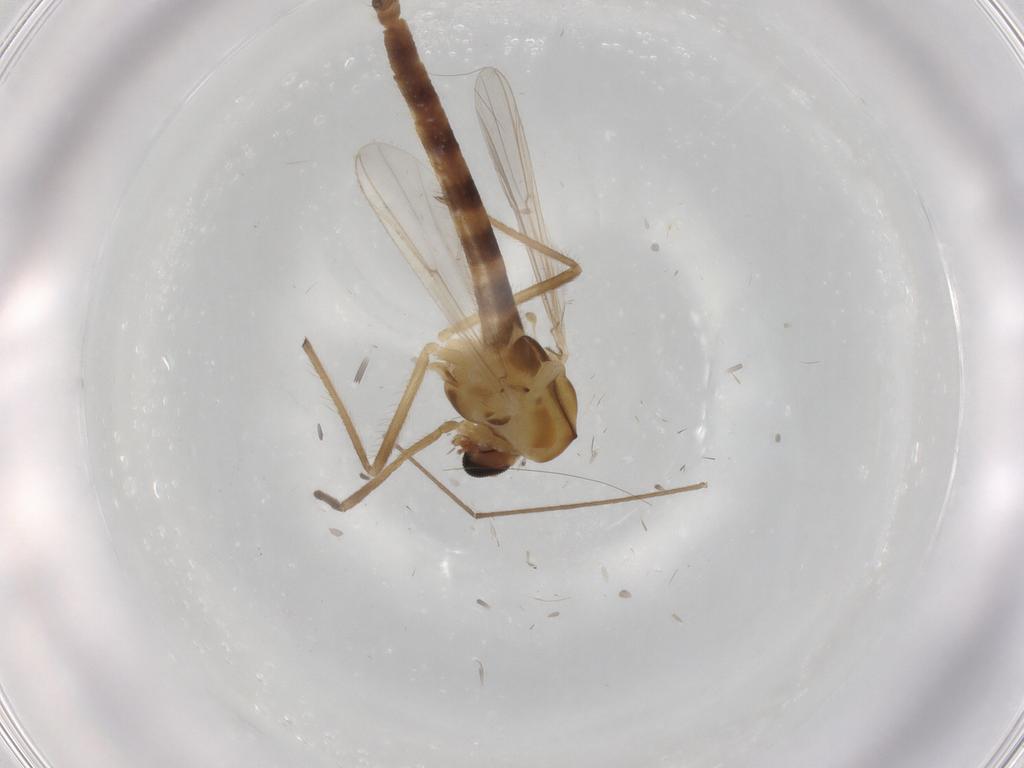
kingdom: Animalia
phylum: Arthropoda
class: Insecta
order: Diptera
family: Chironomidae
